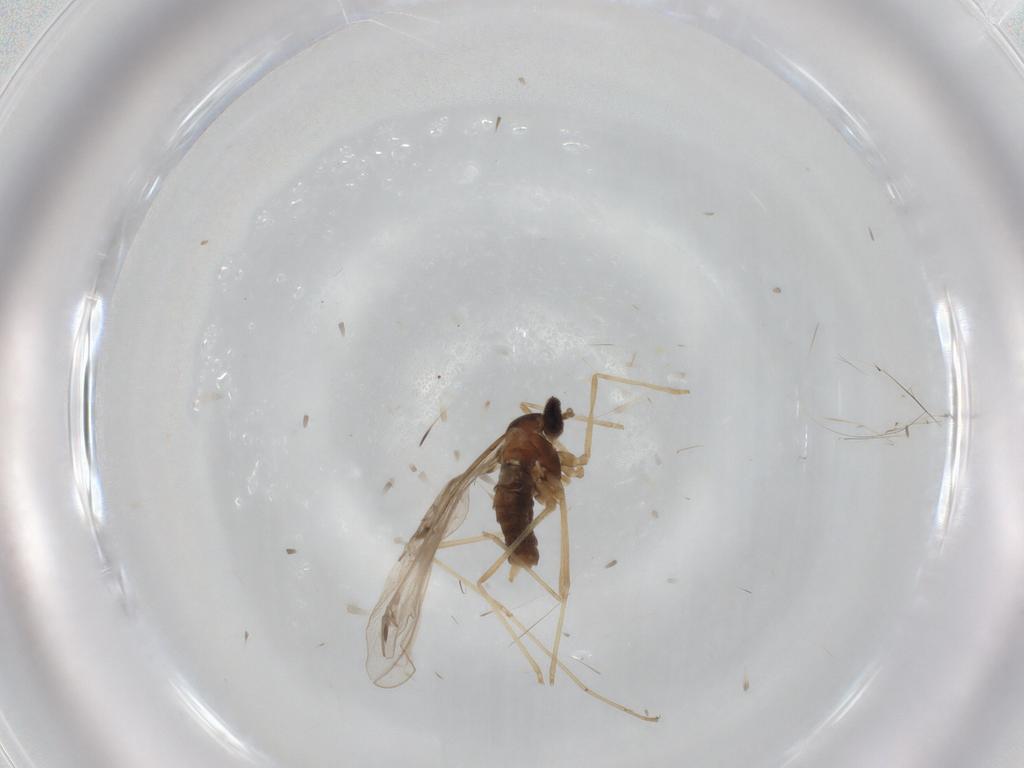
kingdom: Animalia
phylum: Arthropoda
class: Insecta
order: Diptera
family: Cecidomyiidae
